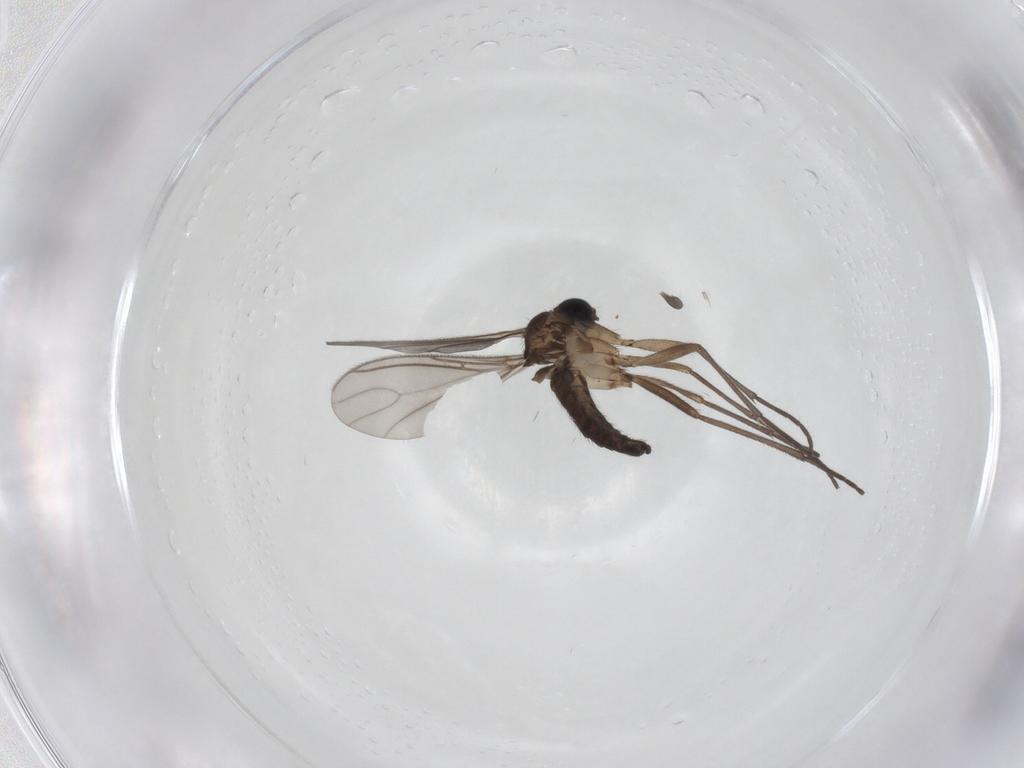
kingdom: Animalia
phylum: Arthropoda
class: Insecta
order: Diptera
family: Sciaridae
